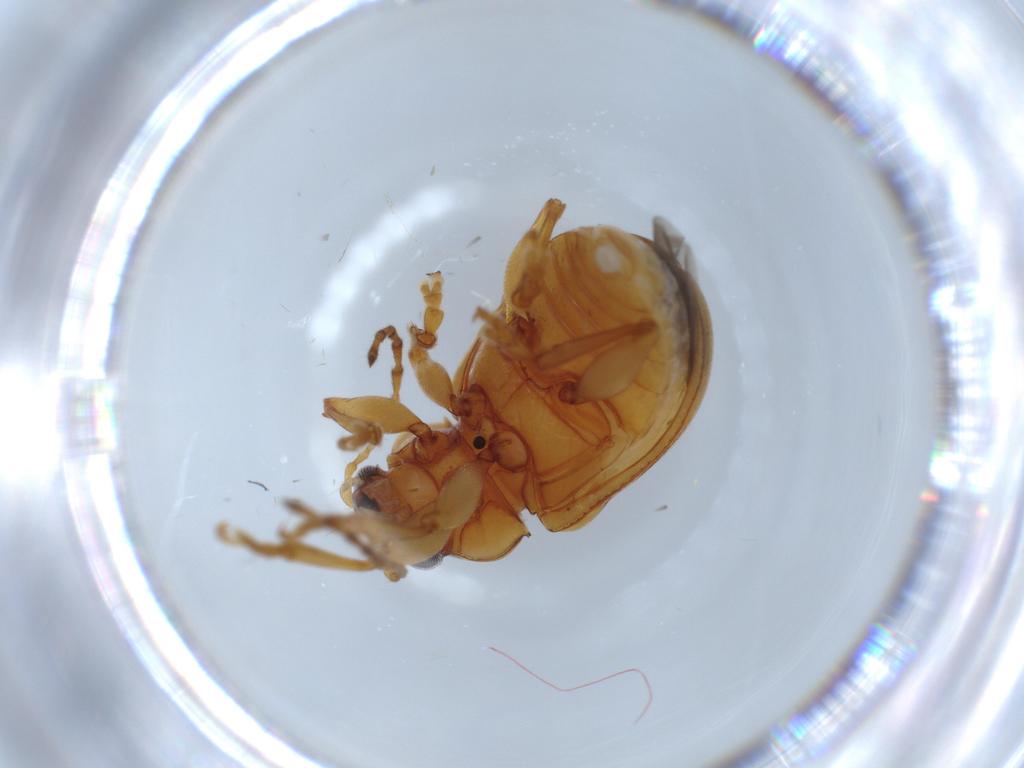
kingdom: Animalia
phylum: Arthropoda
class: Insecta
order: Coleoptera
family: Chrysomelidae
